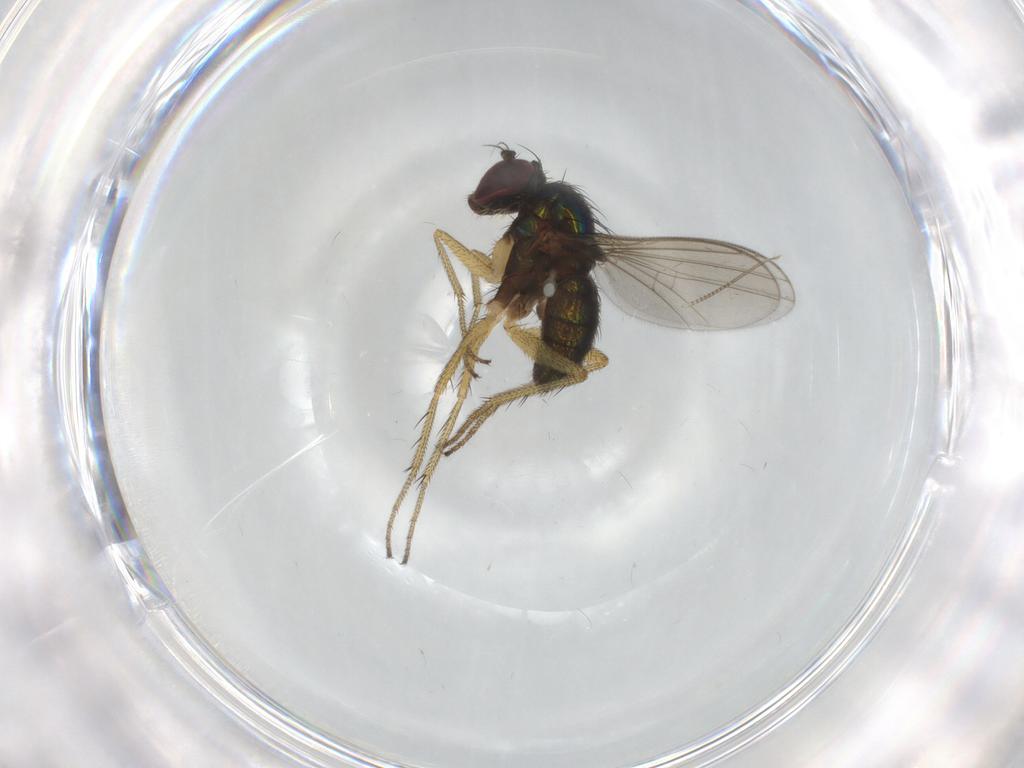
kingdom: Animalia
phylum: Arthropoda
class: Insecta
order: Diptera
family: Dolichopodidae
